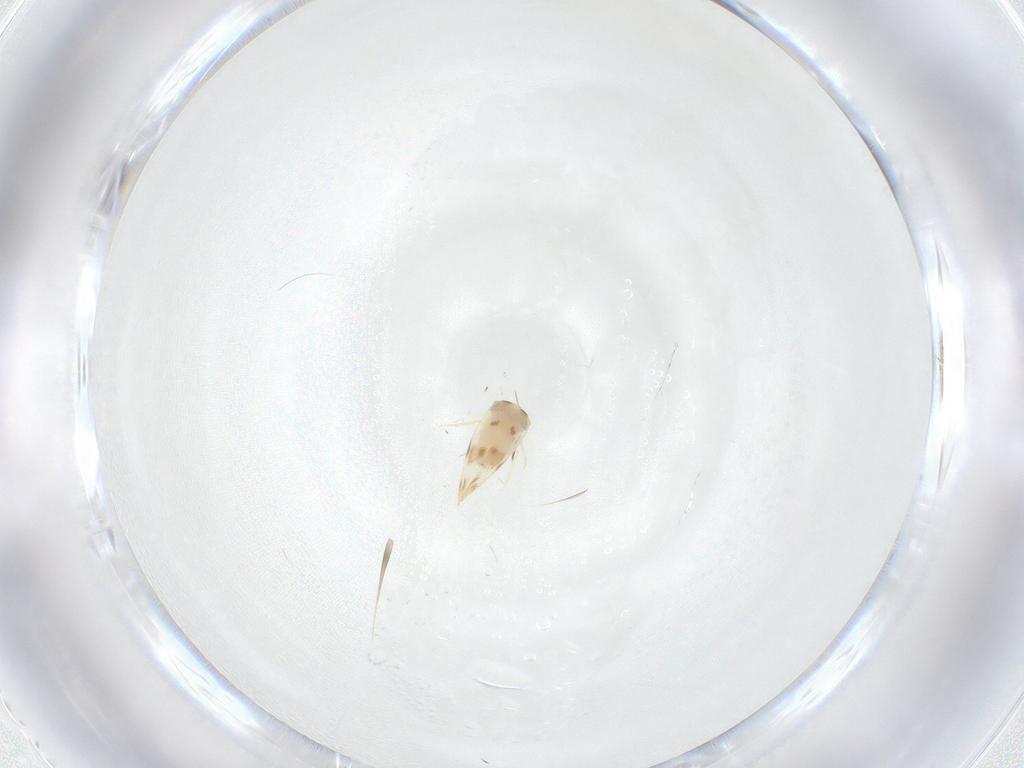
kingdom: Animalia
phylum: Arthropoda
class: Insecta
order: Hemiptera
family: Aleyrodidae
